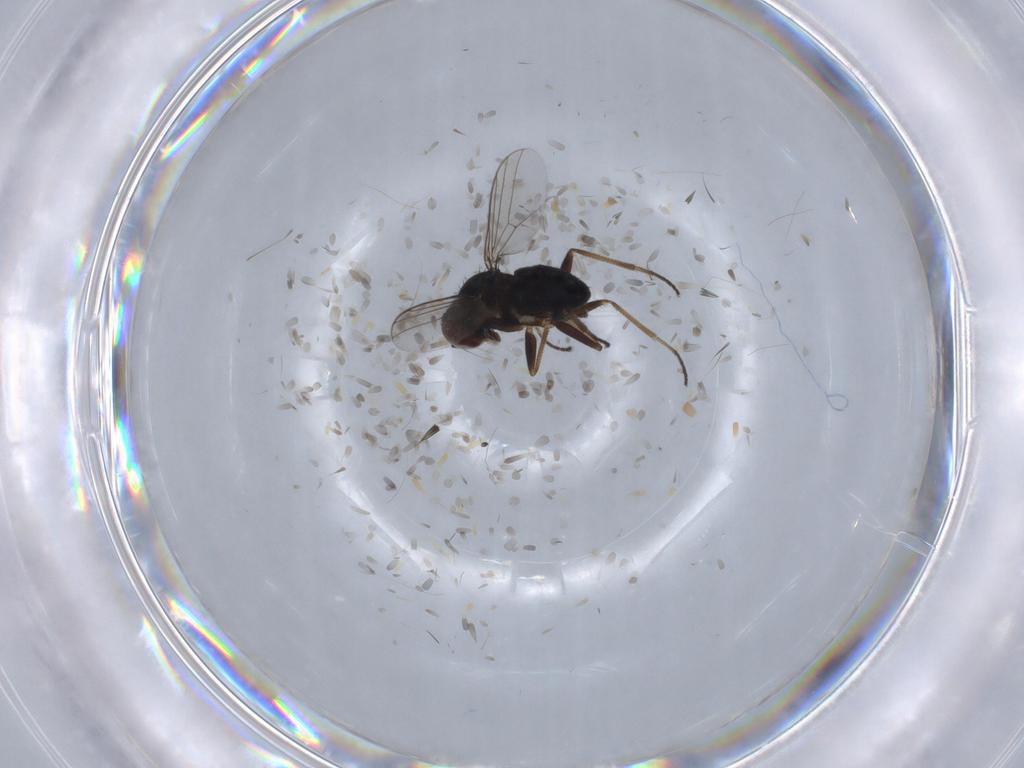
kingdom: Animalia
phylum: Arthropoda
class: Insecta
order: Diptera
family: Dolichopodidae
